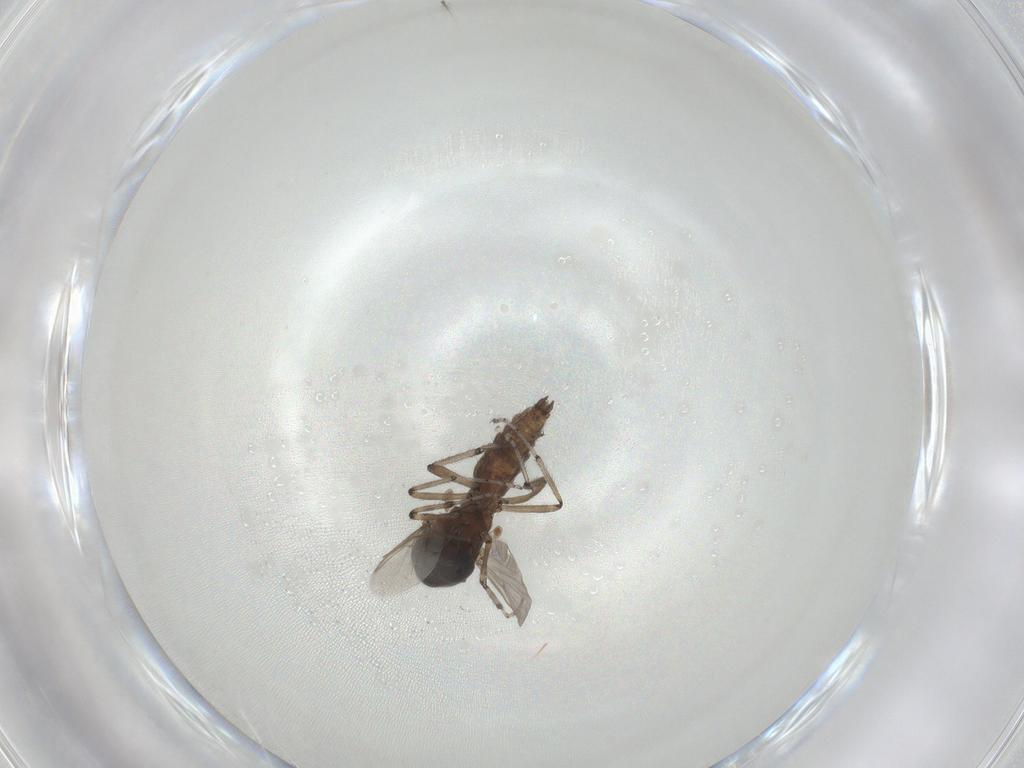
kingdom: Animalia
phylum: Arthropoda
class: Insecta
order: Diptera
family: Ceratopogonidae
